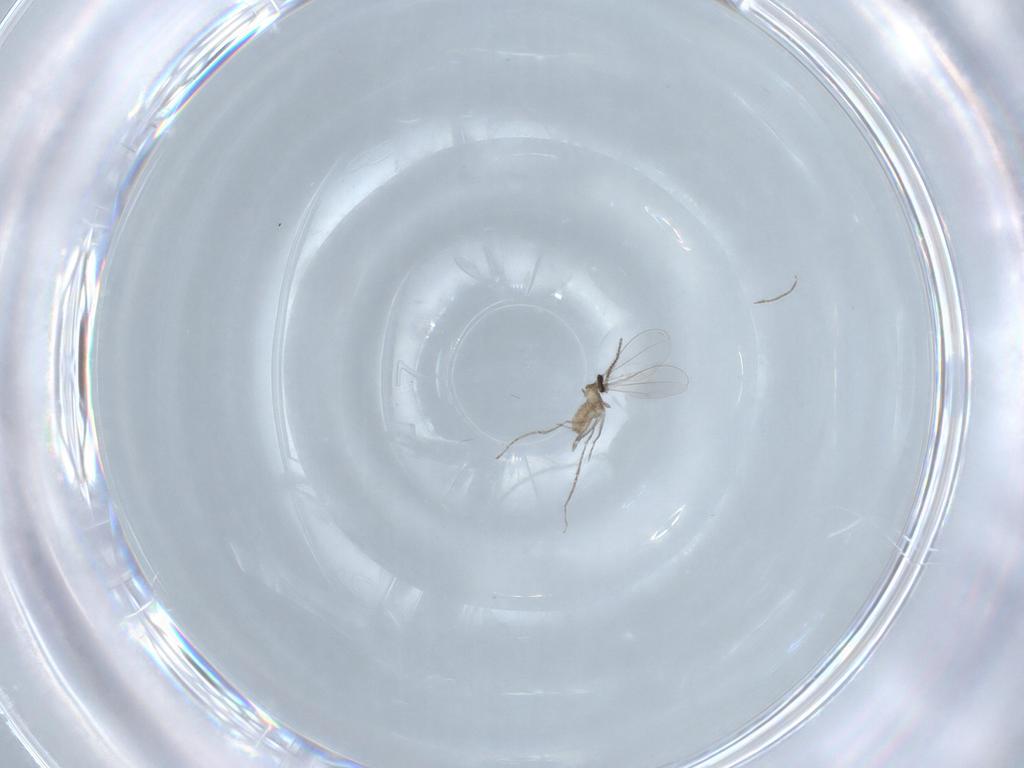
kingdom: Animalia
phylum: Arthropoda
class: Insecta
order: Diptera
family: Cecidomyiidae
